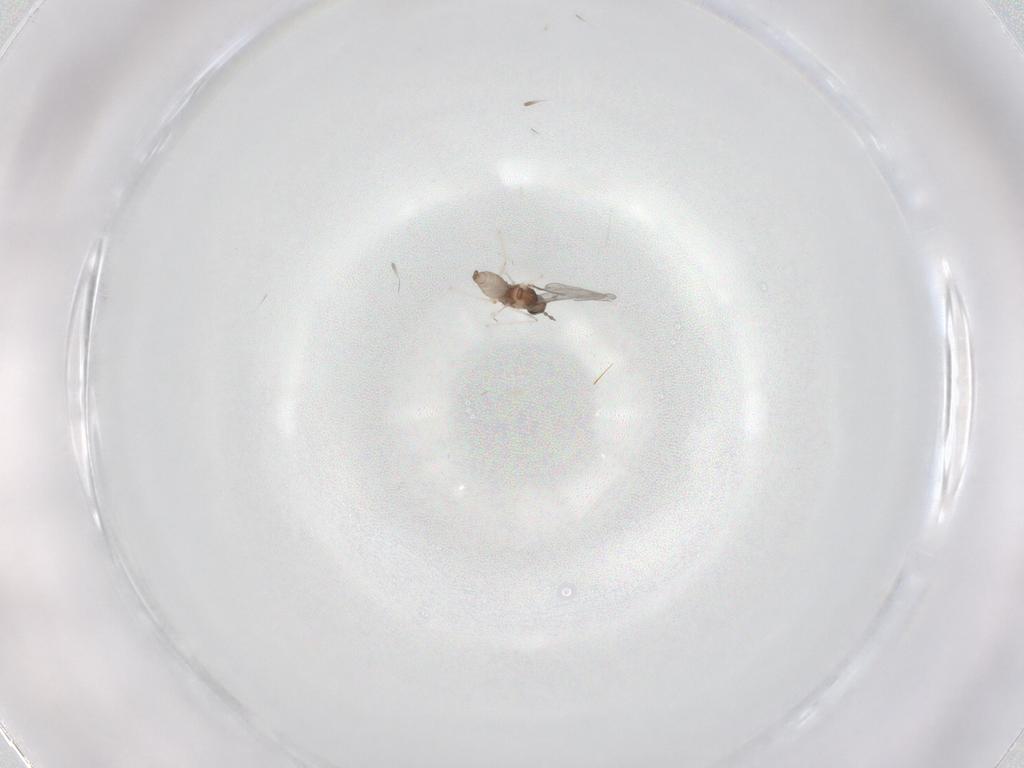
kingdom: Animalia
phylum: Arthropoda
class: Insecta
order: Diptera
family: Cecidomyiidae
